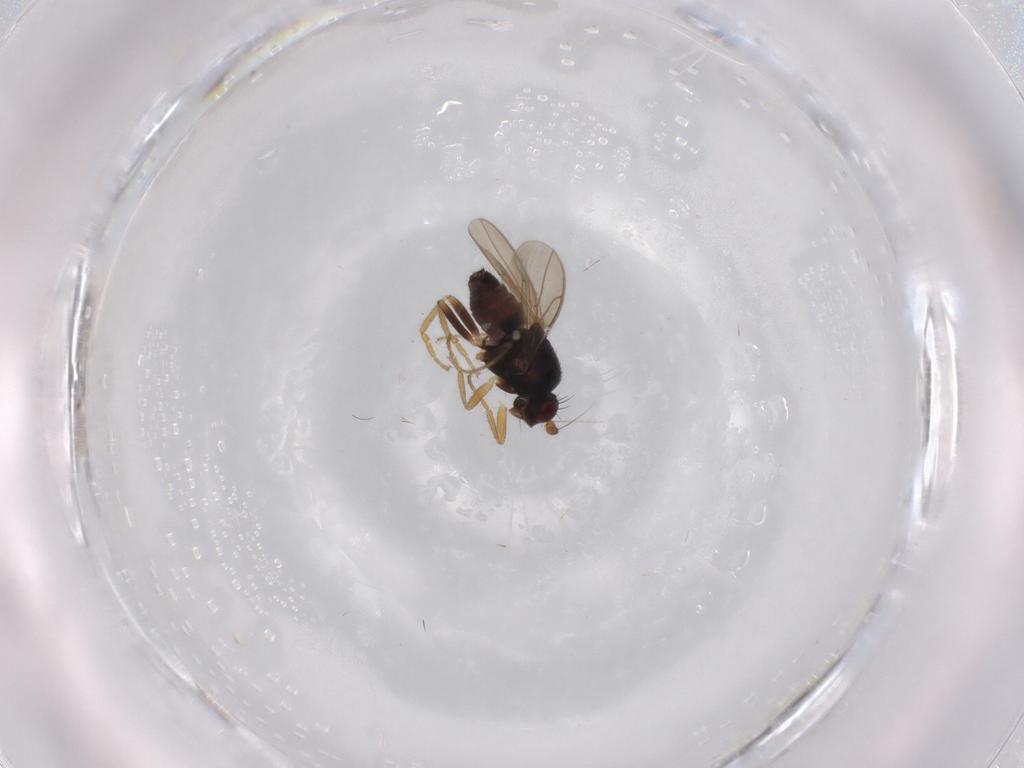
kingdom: Animalia
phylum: Arthropoda
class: Insecta
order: Diptera
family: Sphaeroceridae
